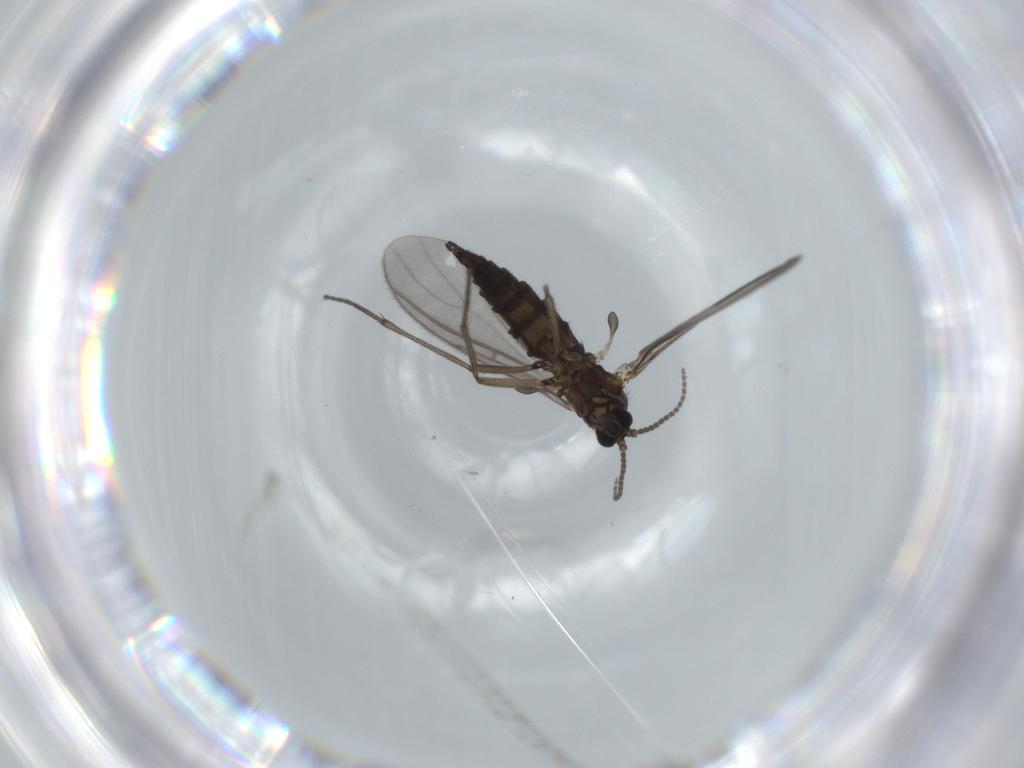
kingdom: Animalia
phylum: Arthropoda
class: Insecta
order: Diptera
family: Sciaridae
